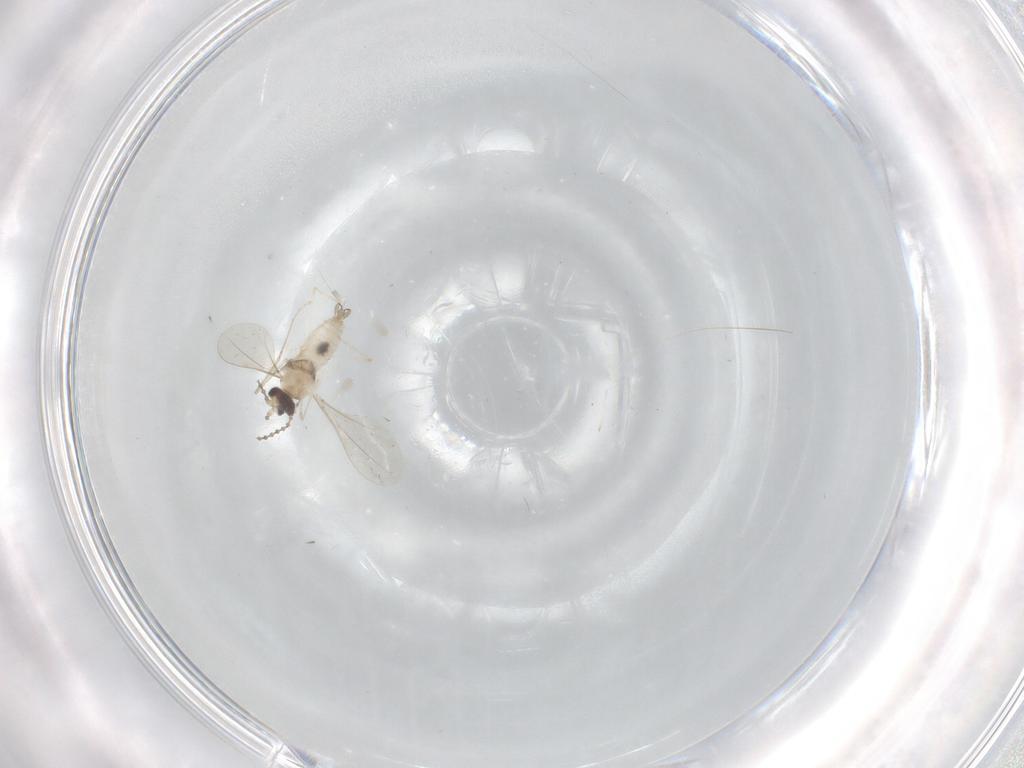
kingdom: Animalia
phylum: Arthropoda
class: Insecta
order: Diptera
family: Cecidomyiidae
